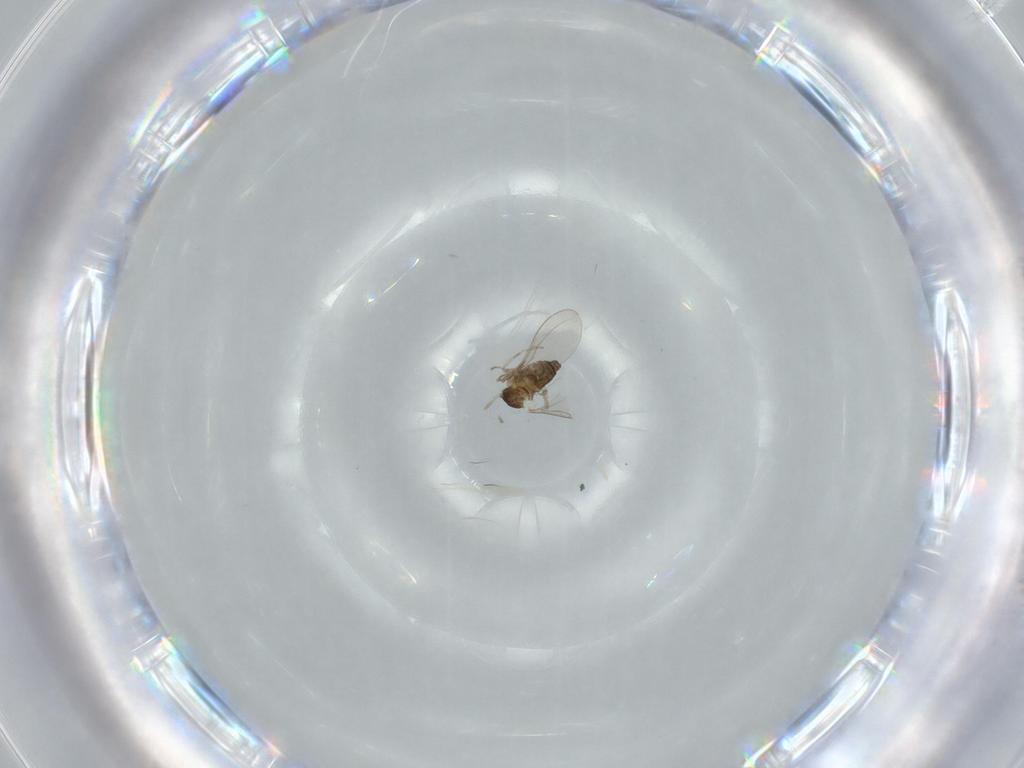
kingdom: Animalia
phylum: Arthropoda
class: Insecta
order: Diptera
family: Cecidomyiidae
